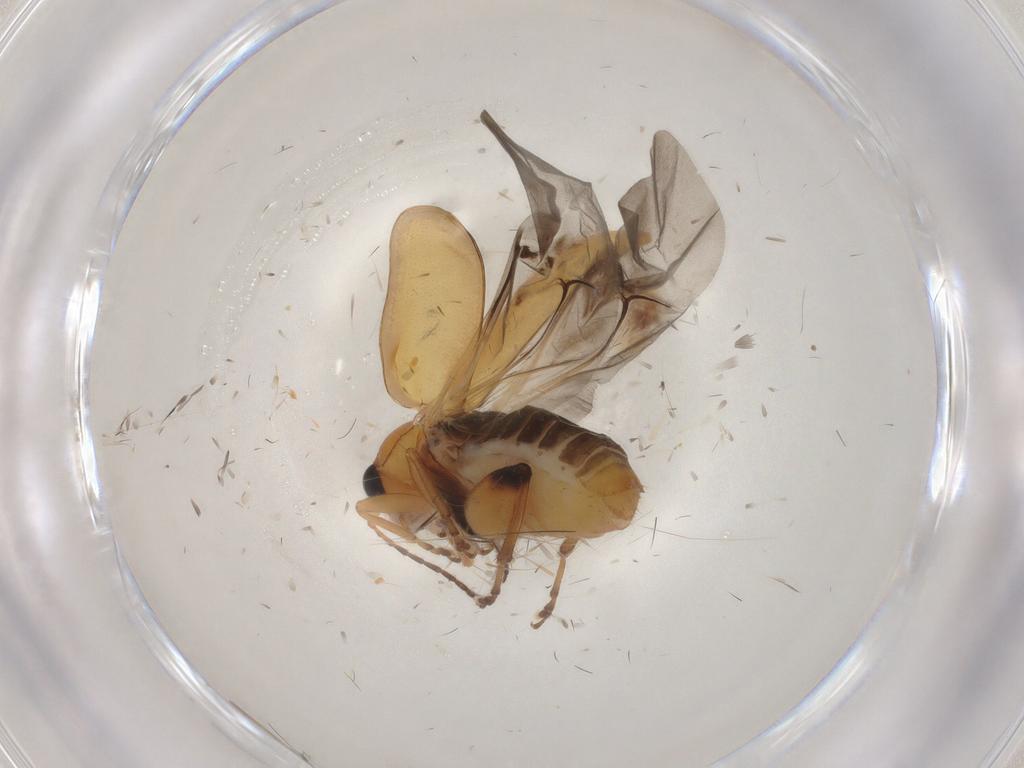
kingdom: Animalia
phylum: Arthropoda
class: Insecta
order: Coleoptera
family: Chrysomelidae
